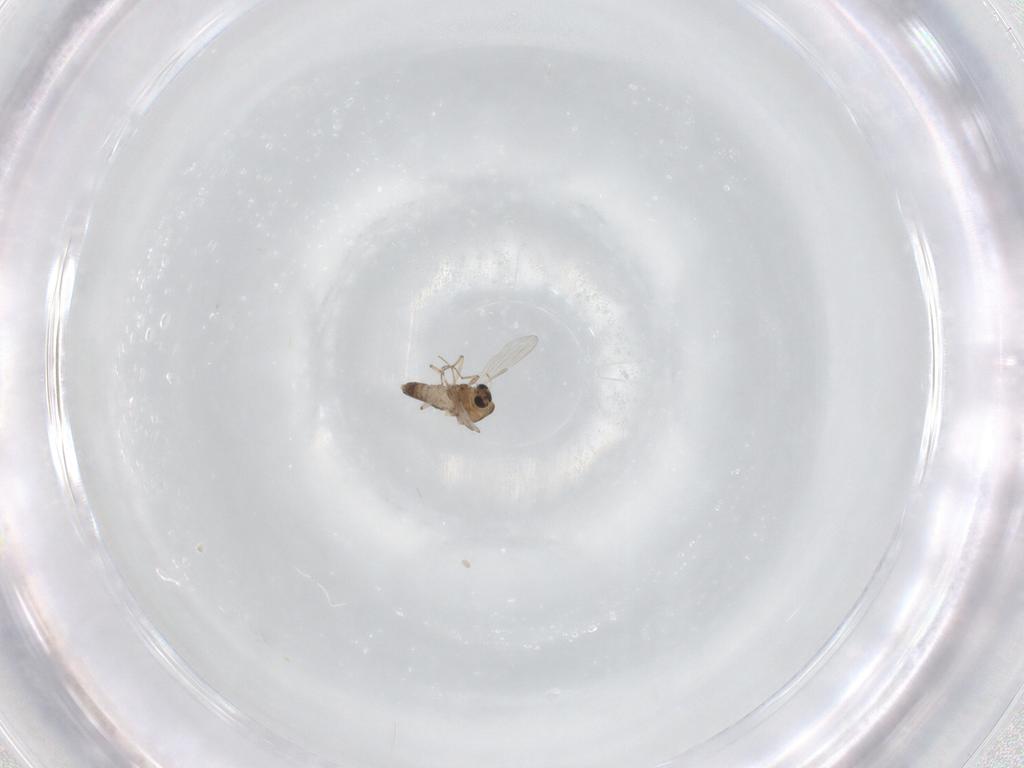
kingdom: Animalia
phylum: Arthropoda
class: Insecta
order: Diptera
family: Chironomidae
